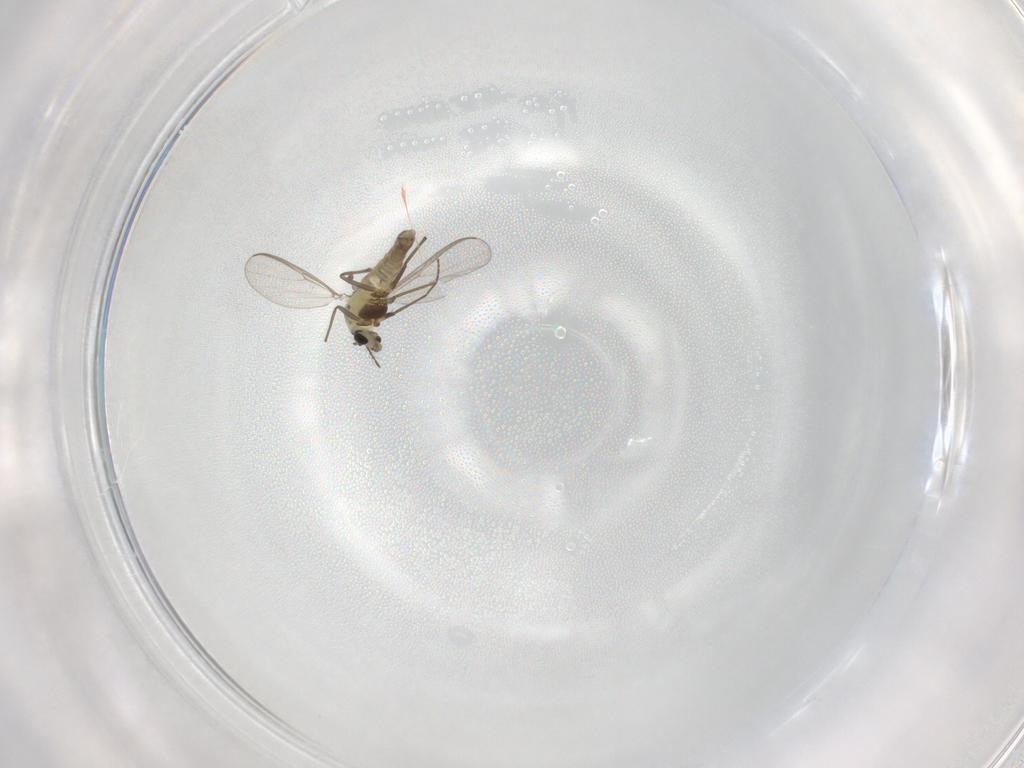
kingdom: Animalia
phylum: Arthropoda
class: Insecta
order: Diptera
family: Chironomidae
